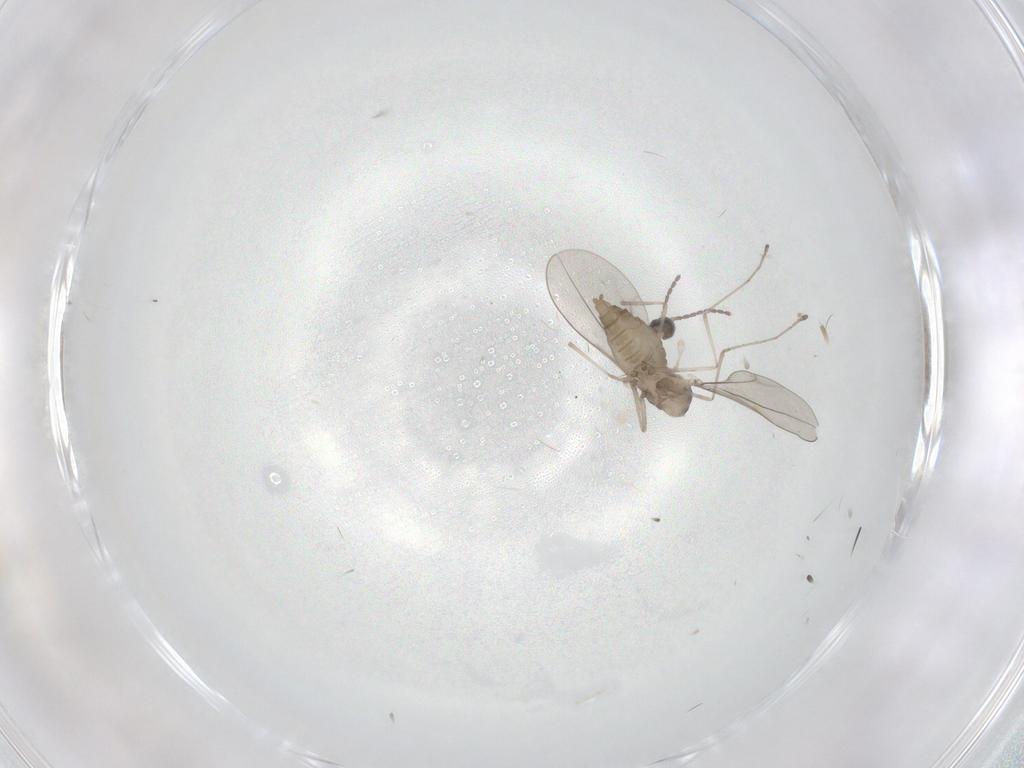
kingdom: Animalia
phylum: Arthropoda
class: Insecta
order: Diptera
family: Cecidomyiidae
